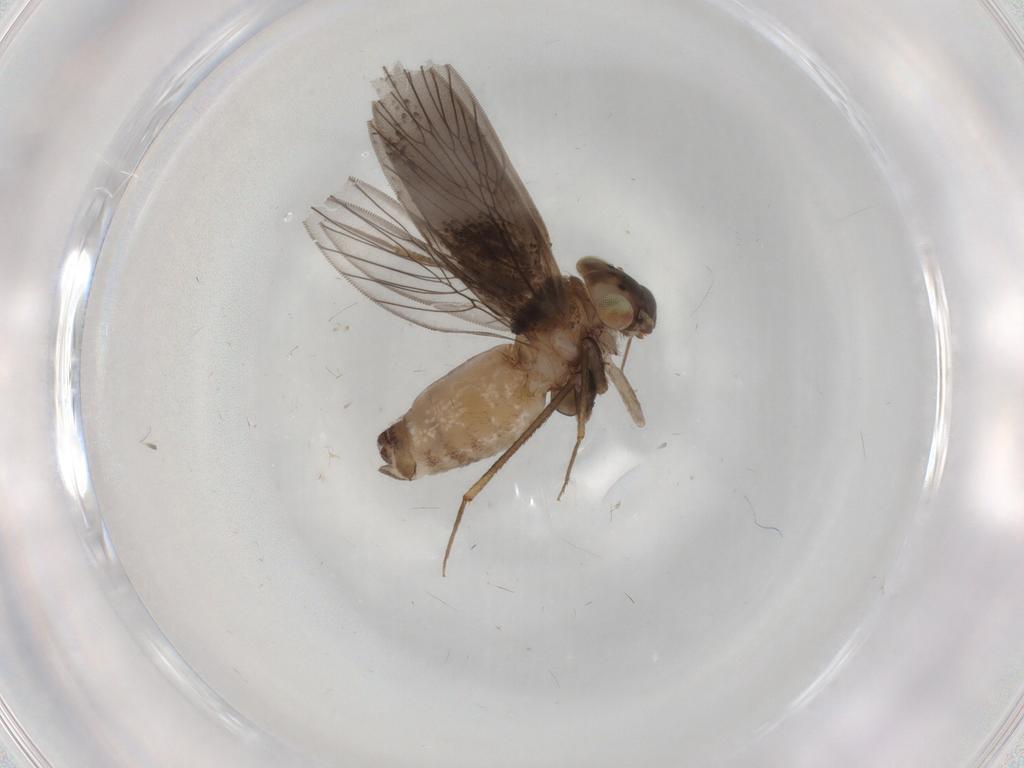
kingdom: Animalia
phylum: Arthropoda
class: Insecta
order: Psocodea
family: Lepidopsocidae
